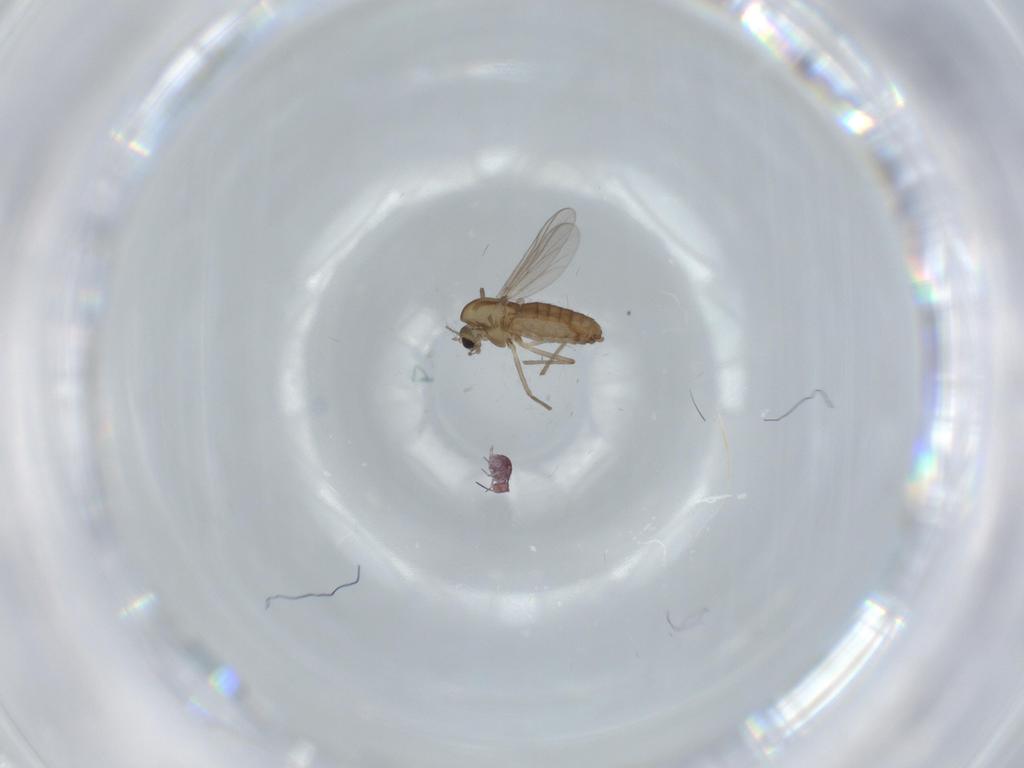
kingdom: Animalia
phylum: Arthropoda
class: Insecta
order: Diptera
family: Chironomidae
